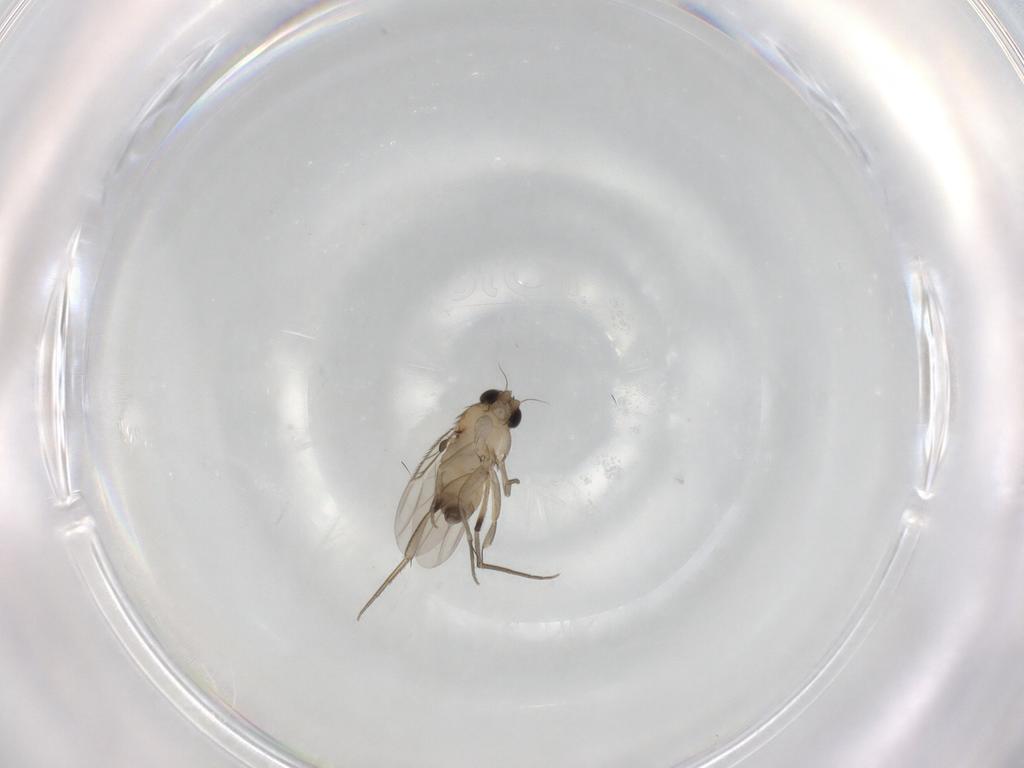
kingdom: Animalia
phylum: Arthropoda
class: Insecta
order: Diptera
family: Phoridae
